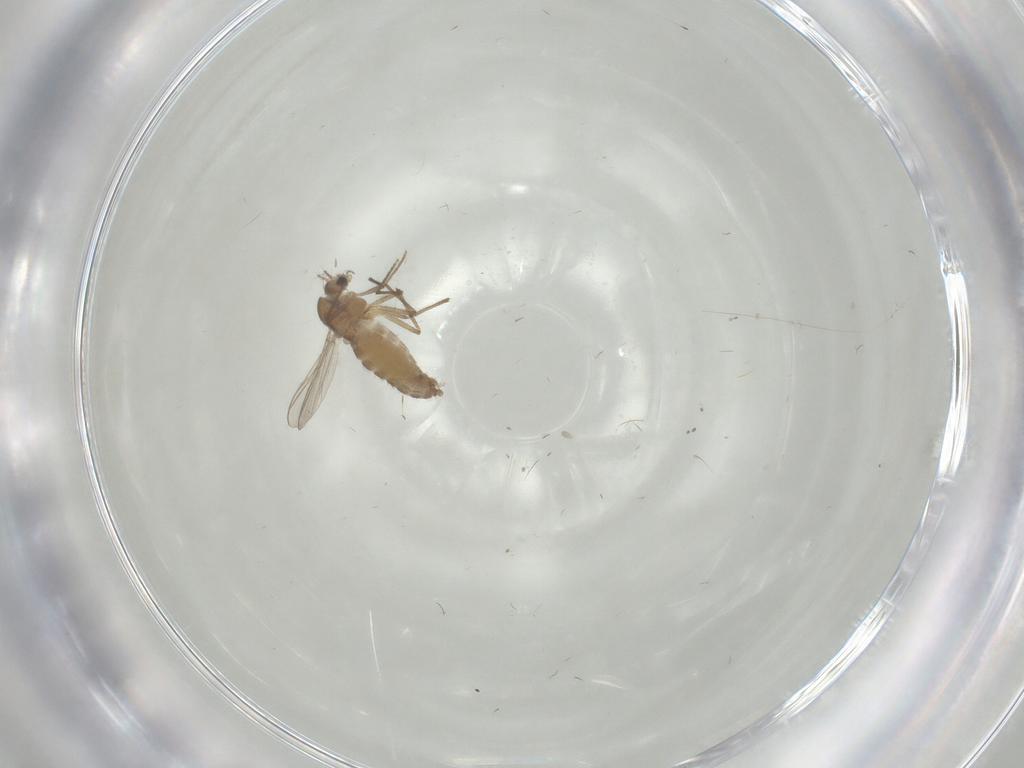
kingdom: Animalia
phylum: Arthropoda
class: Insecta
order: Diptera
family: Chironomidae
